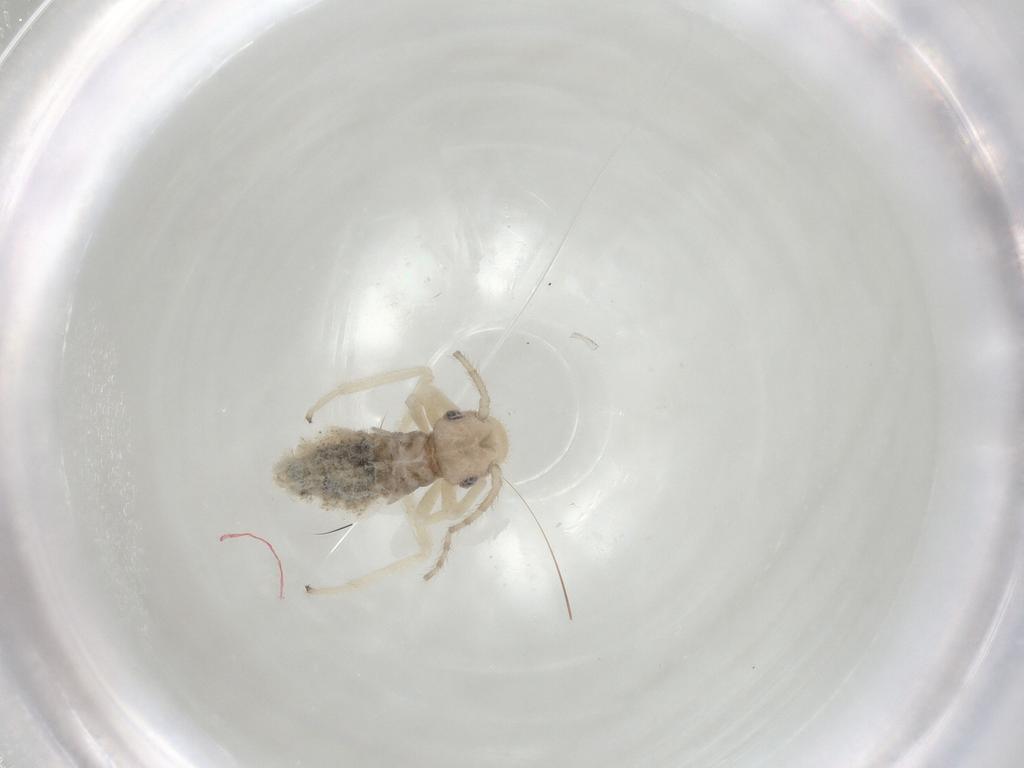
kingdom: Animalia
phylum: Arthropoda
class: Insecta
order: Psocodea
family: Amphipsocidae
